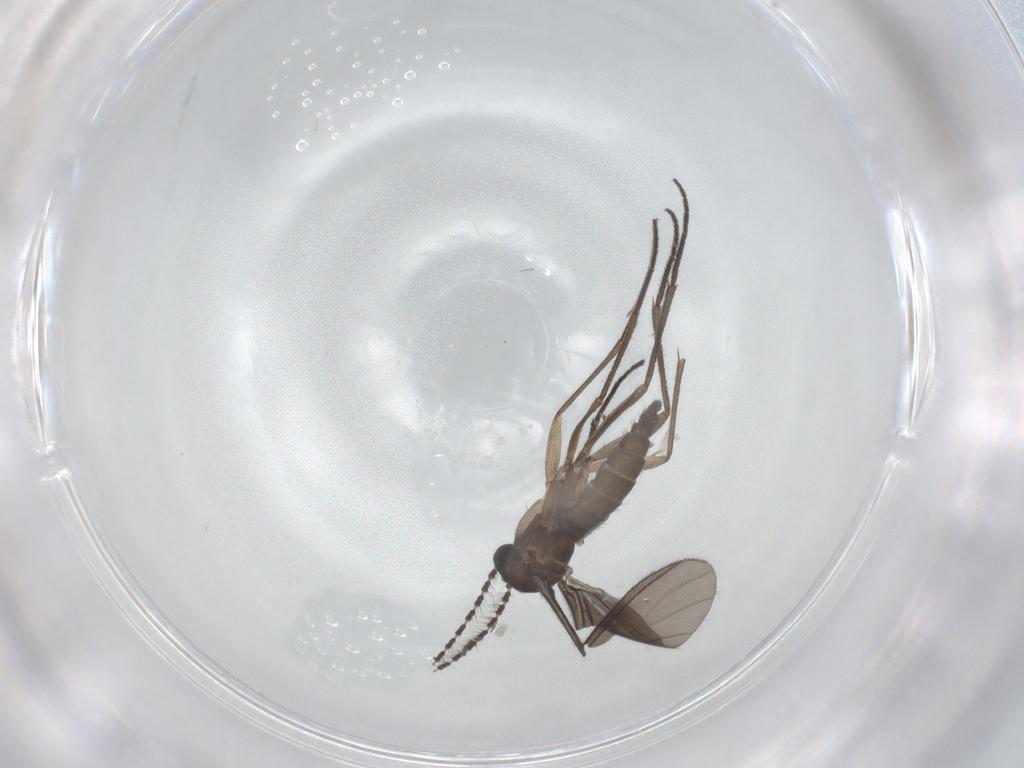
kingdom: Animalia
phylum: Arthropoda
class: Insecta
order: Diptera
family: Sciaridae
